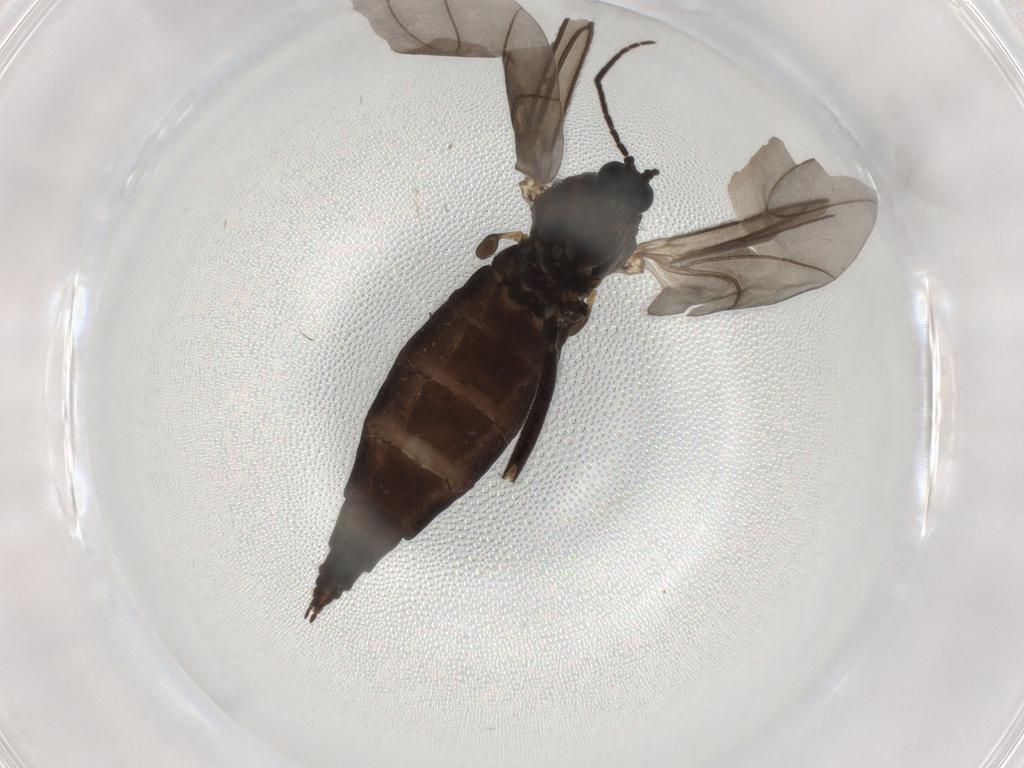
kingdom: Animalia
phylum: Arthropoda
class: Insecta
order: Diptera
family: Sciaridae
